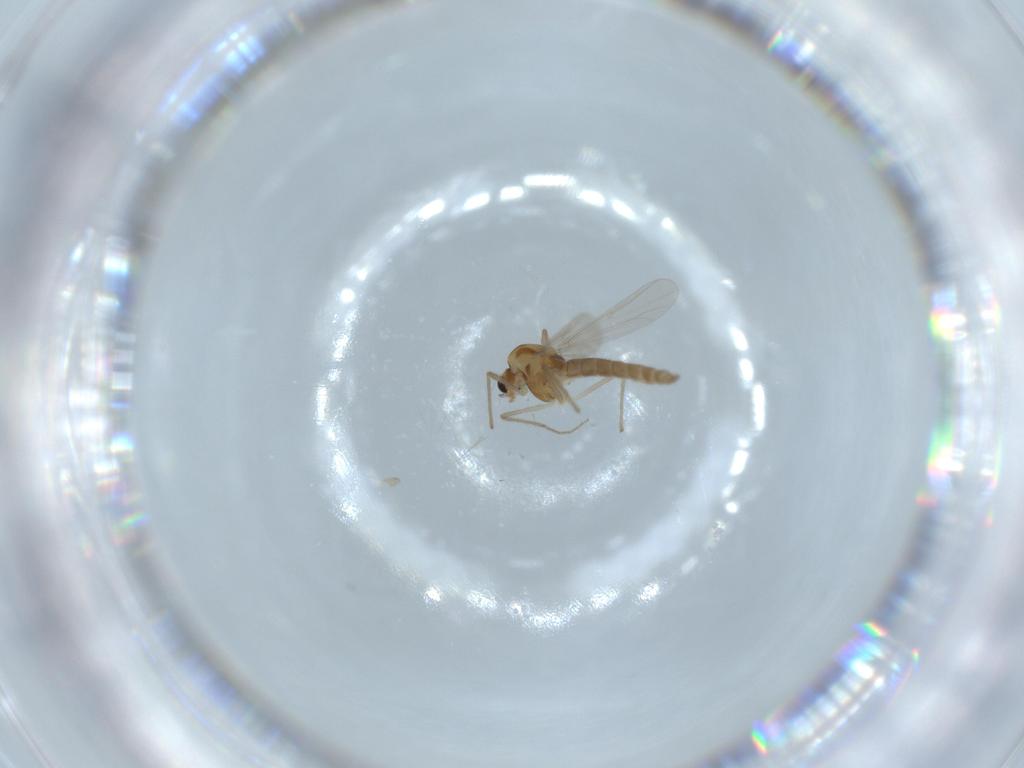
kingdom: Animalia
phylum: Arthropoda
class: Insecta
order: Diptera
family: Chironomidae
